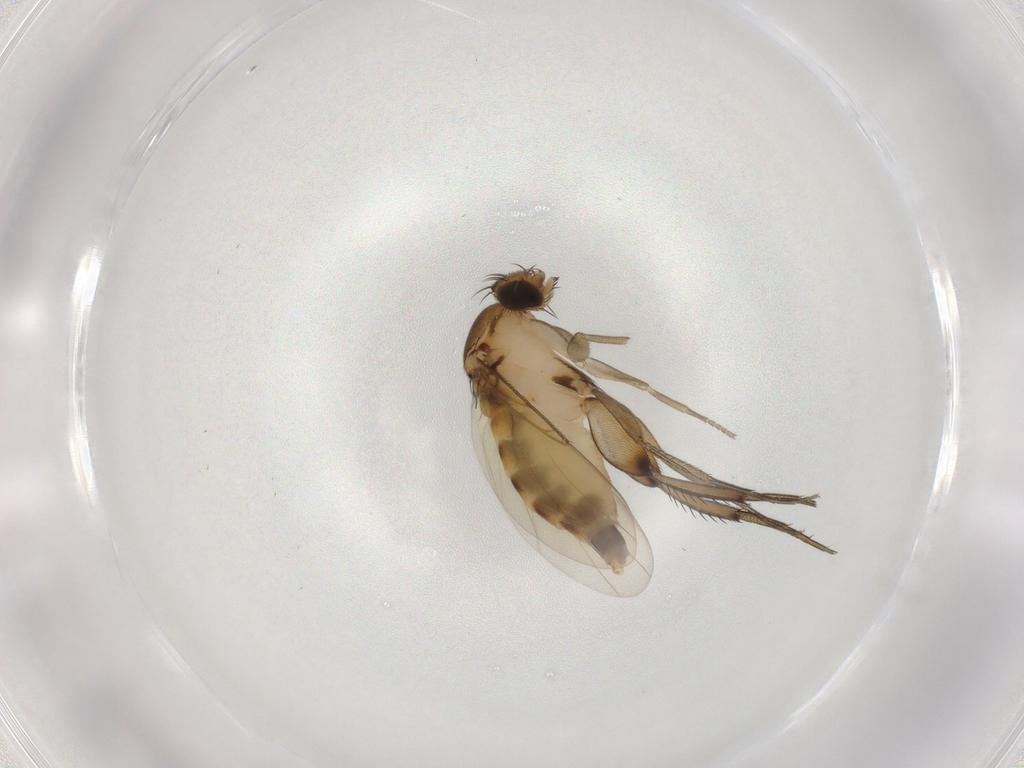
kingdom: Animalia
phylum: Arthropoda
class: Insecta
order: Diptera
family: Phoridae
